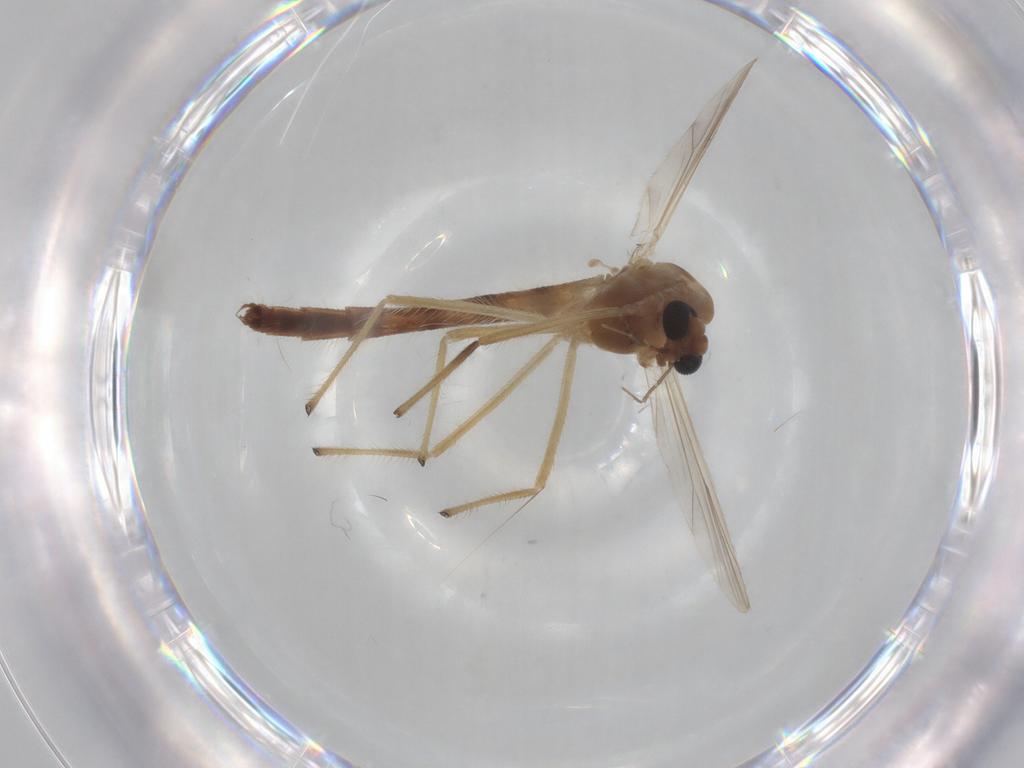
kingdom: Animalia
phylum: Arthropoda
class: Insecta
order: Diptera
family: Chironomidae
